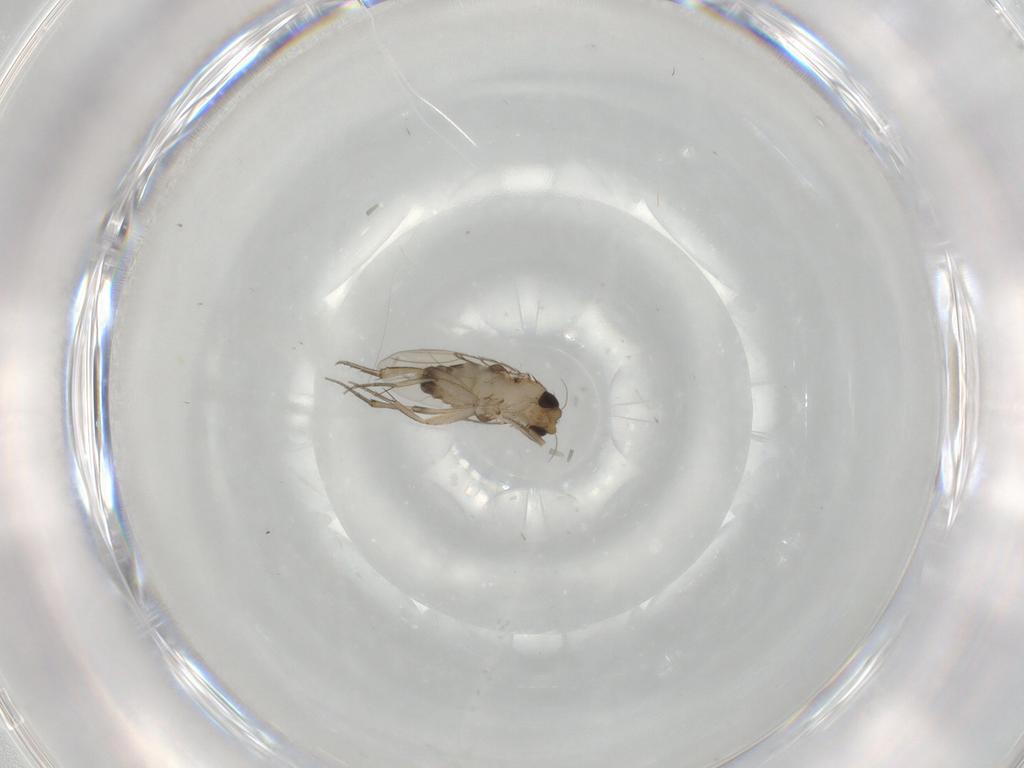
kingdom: Animalia
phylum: Arthropoda
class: Insecta
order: Diptera
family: Phoridae
